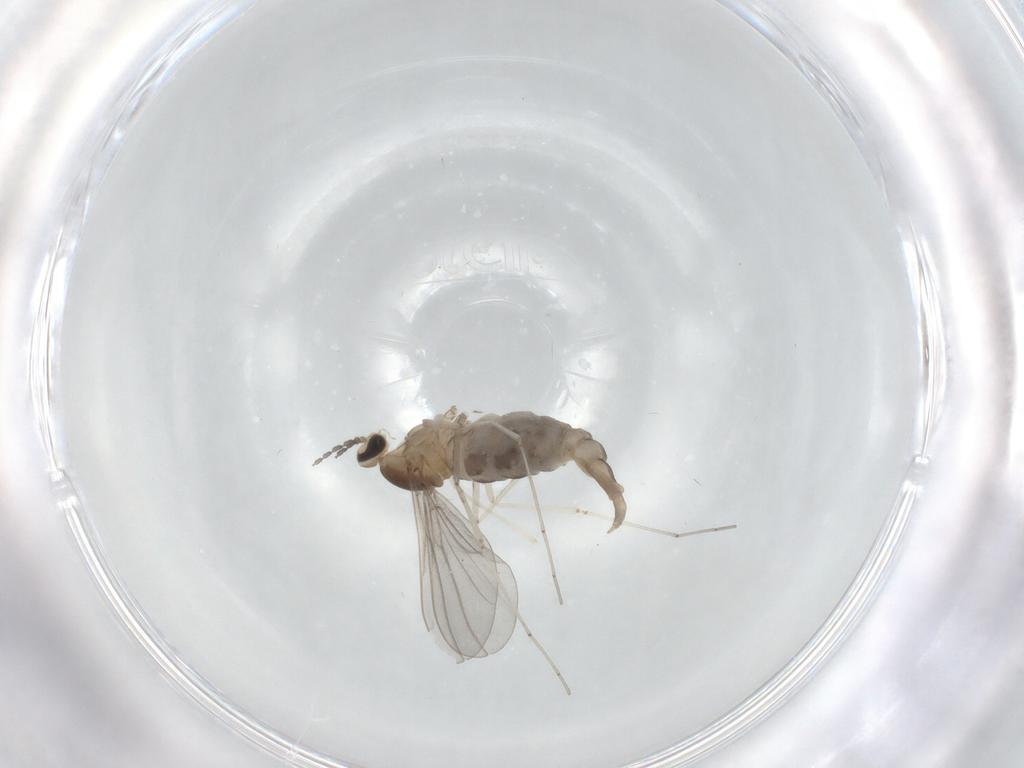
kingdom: Animalia
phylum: Arthropoda
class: Insecta
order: Diptera
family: Cecidomyiidae
